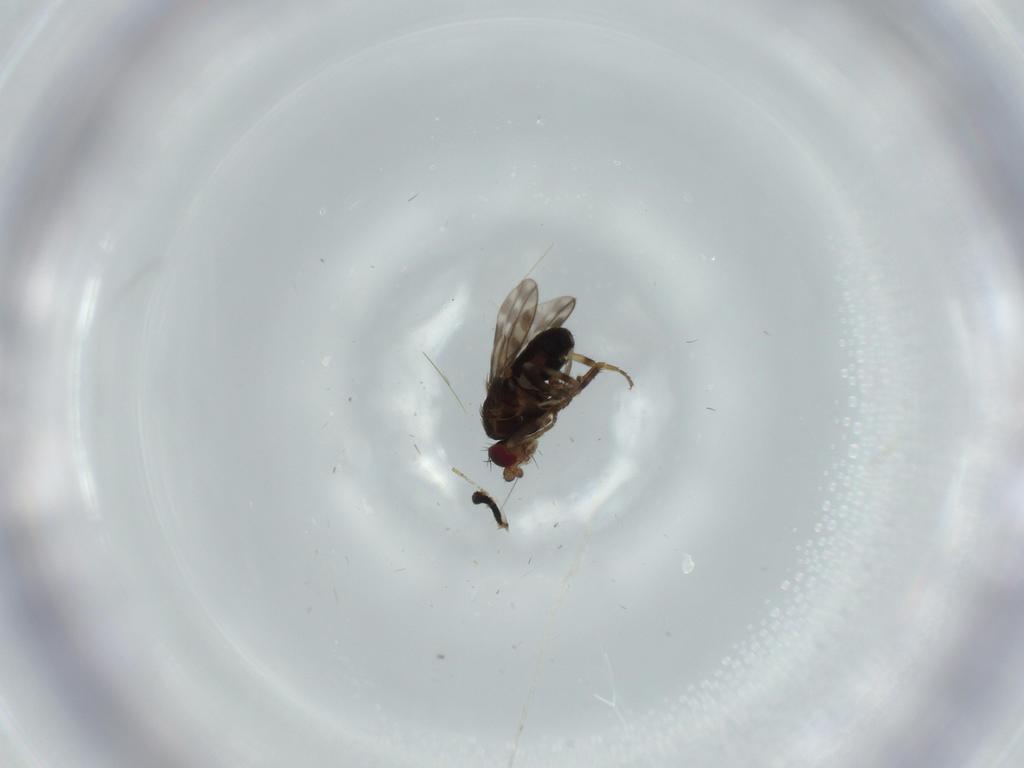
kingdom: Animalia
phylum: Arthropoda
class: Insecta
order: Diptera
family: Sphaeroceridae
